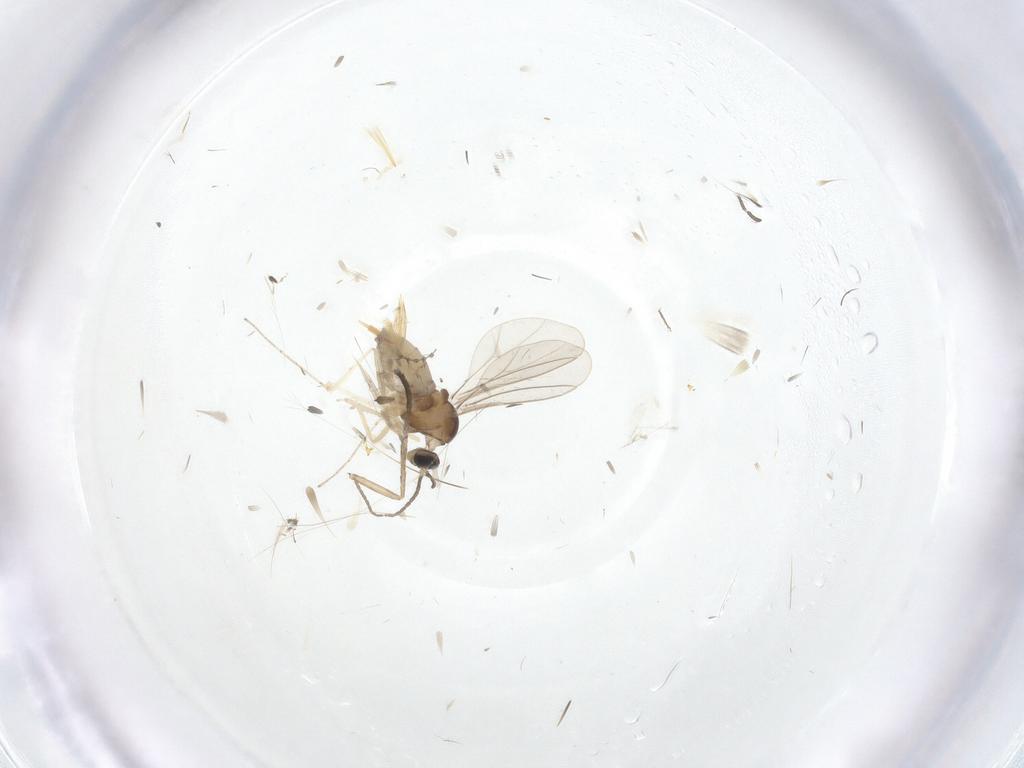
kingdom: Animalia
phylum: Arthropoda
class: Insecta
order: Diptera
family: Cecidomyiidae
